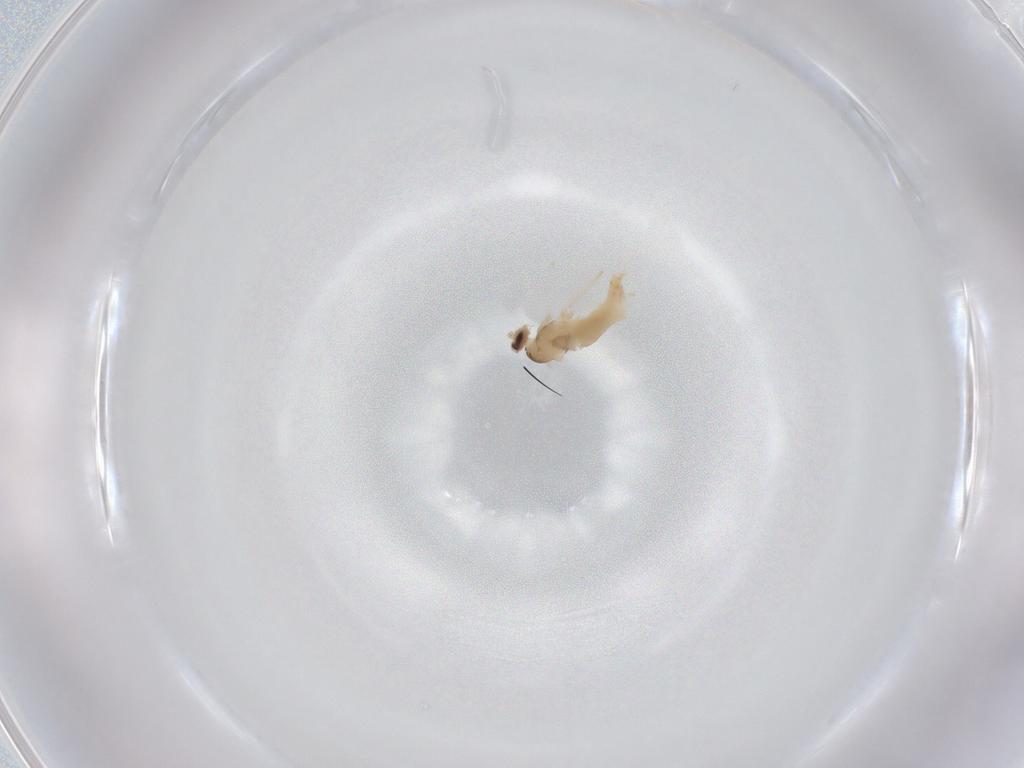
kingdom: Animalia
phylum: Arthropoda
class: Insecta
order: Diptera
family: Cecidomyiidae
